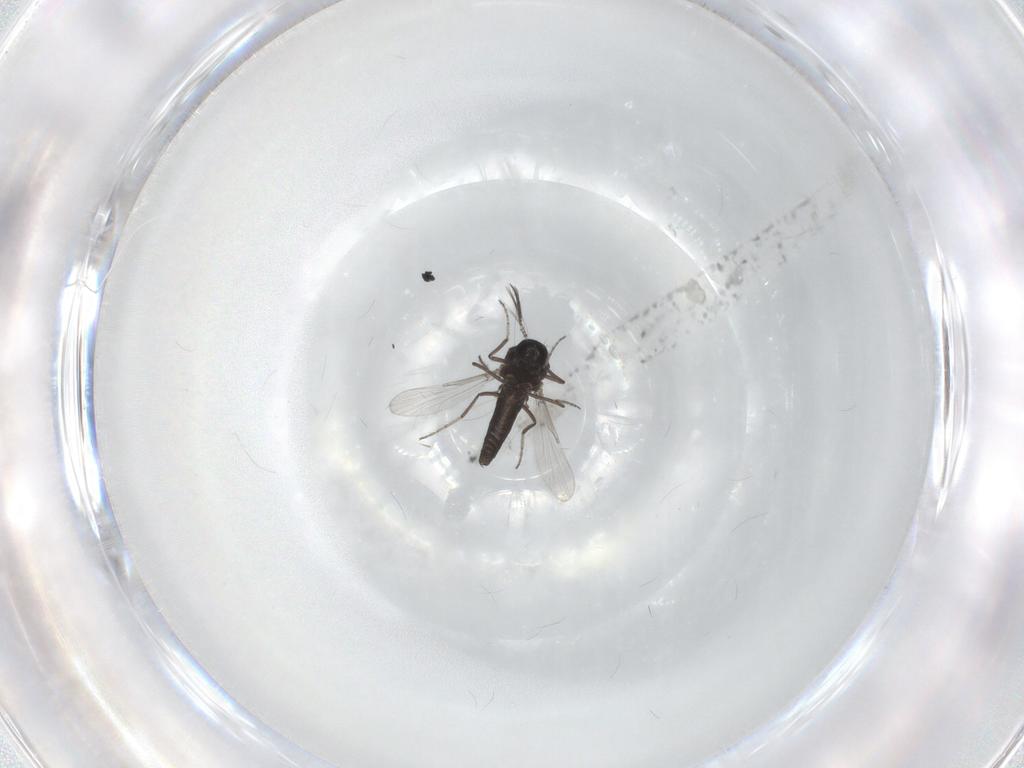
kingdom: Animalia
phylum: Arthropoda
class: Insecta
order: Diptera
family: Ceratopogonidae
